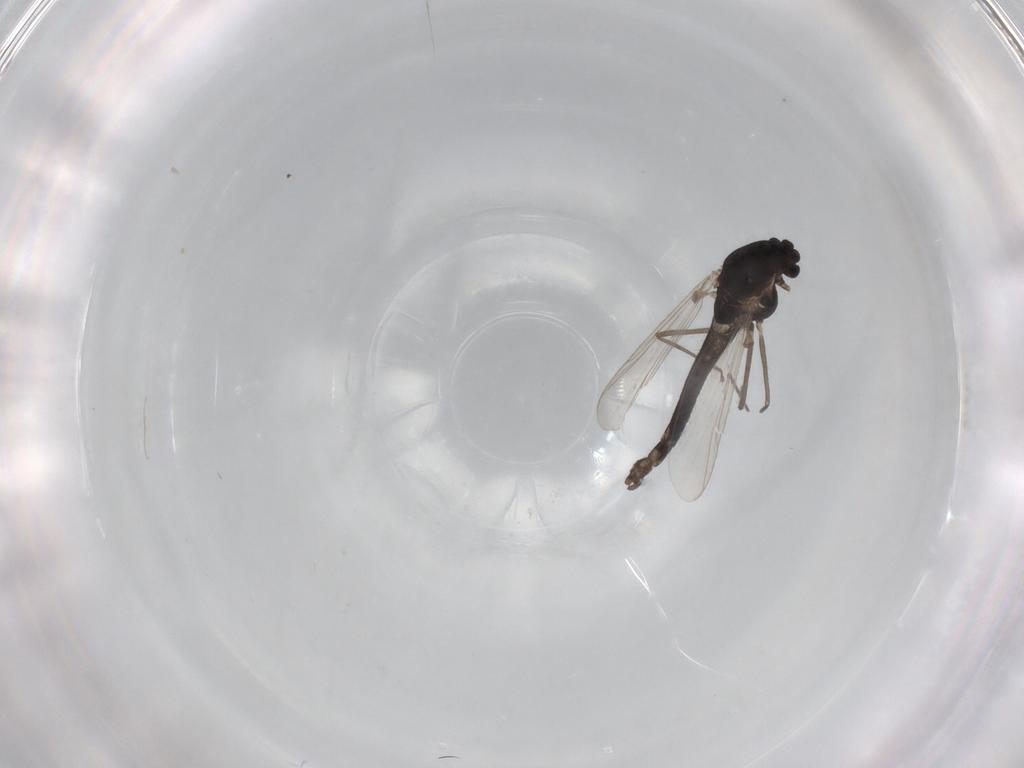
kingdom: Animalia
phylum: Arthropoda
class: Insecta
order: Diptera
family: Chironomidae
